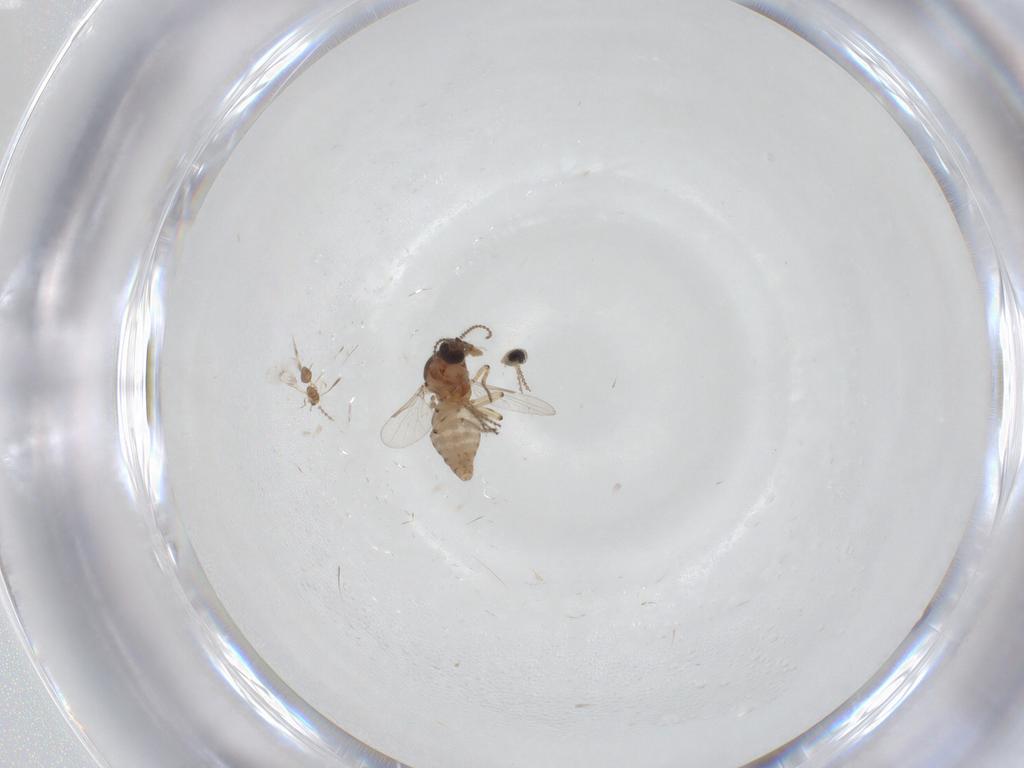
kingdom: Animalia
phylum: Arthropoda
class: Insecta
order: Diptera
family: Ceratopogonidae
